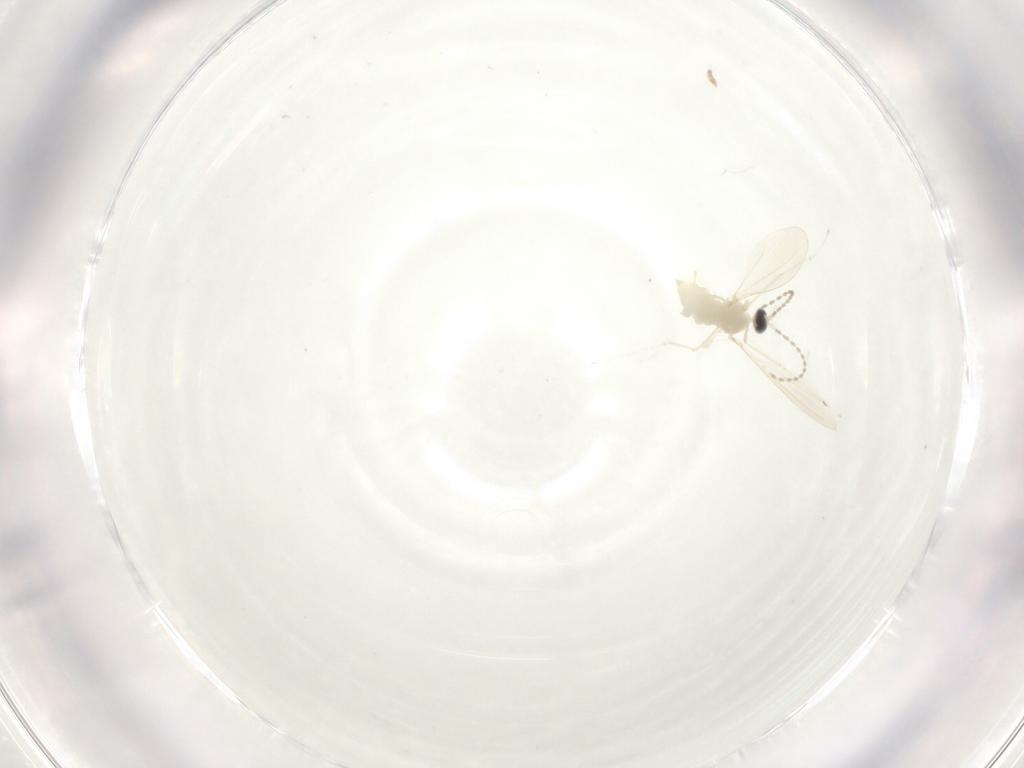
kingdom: Animalia
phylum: Arthropoda
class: Insecta
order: Diptera
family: Cecidomyiidae
